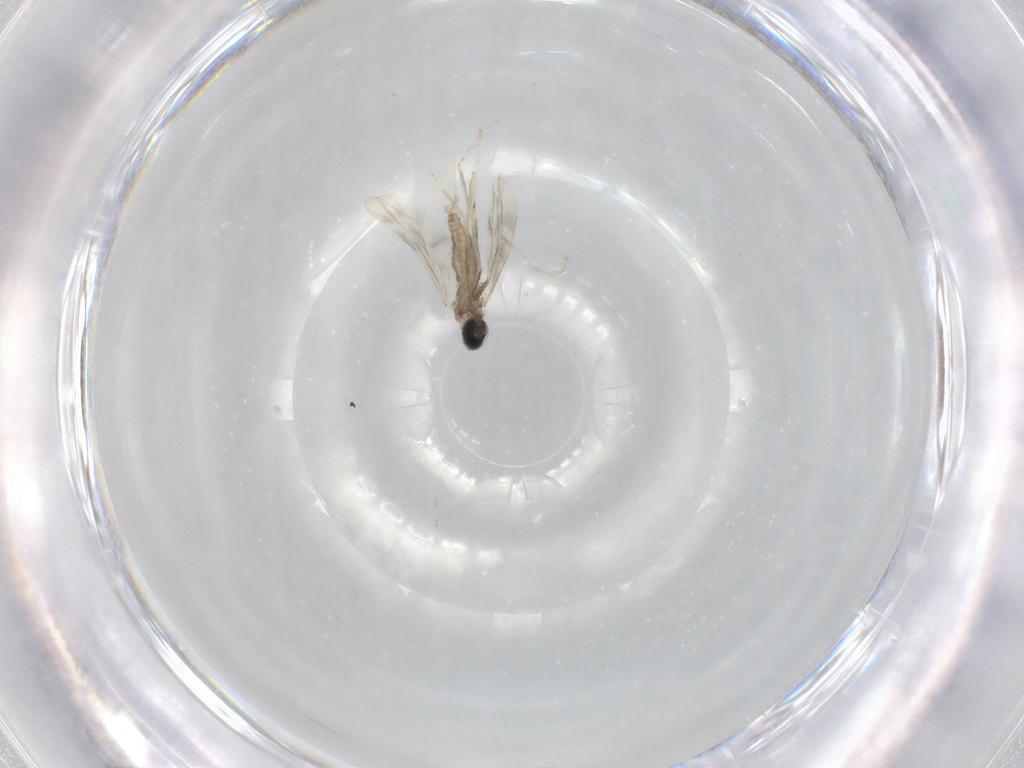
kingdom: Animalia
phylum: Arthropoda
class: Insecta
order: Diptera
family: Cecidomyiidae
